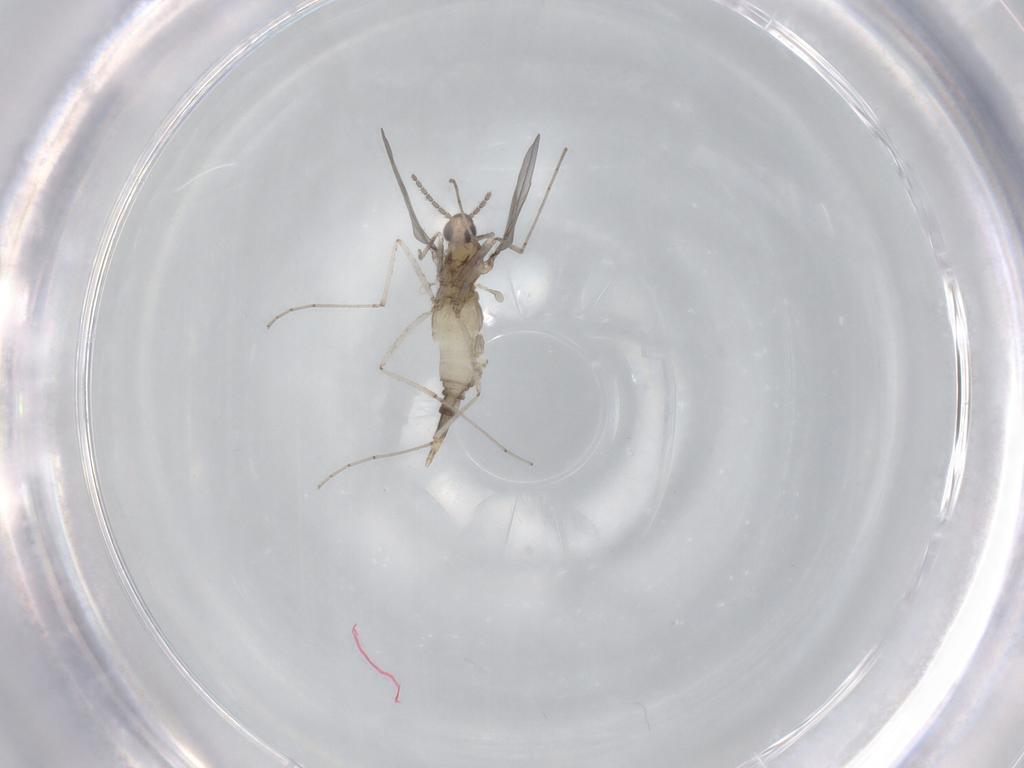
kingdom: Animalia
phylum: Arthropoda
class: Insecta
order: Diptera
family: Cecidomyiidae
